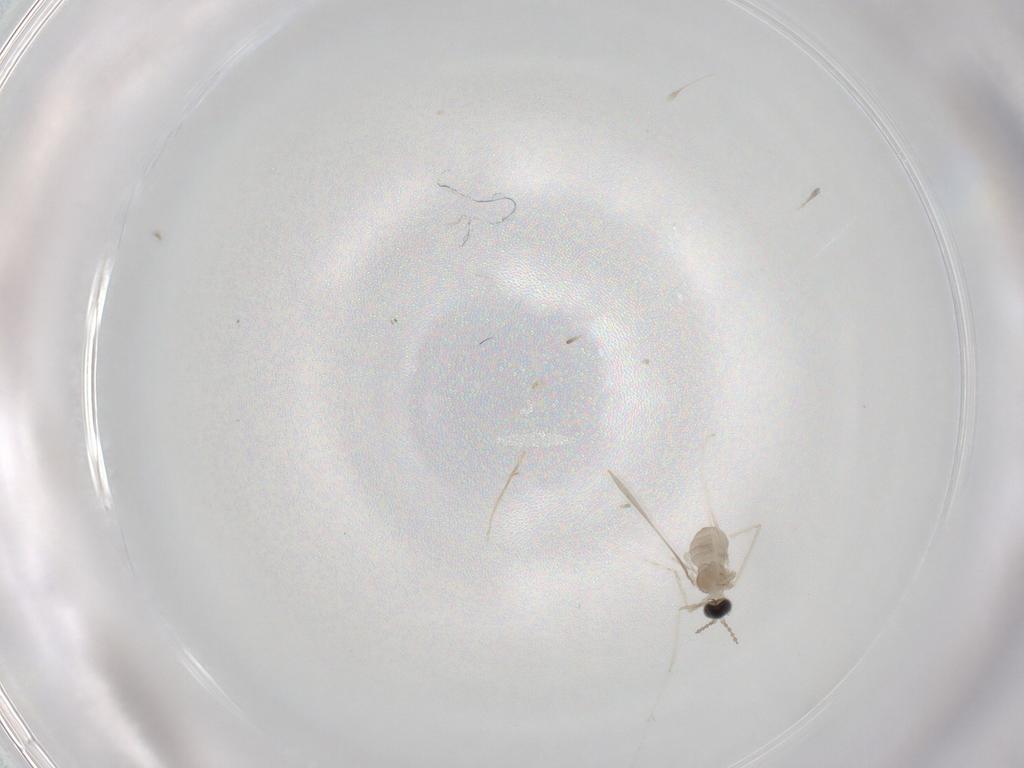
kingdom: Animalia
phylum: Arthropoda
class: Insecta
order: Diptera
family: Cecidomyiidae
